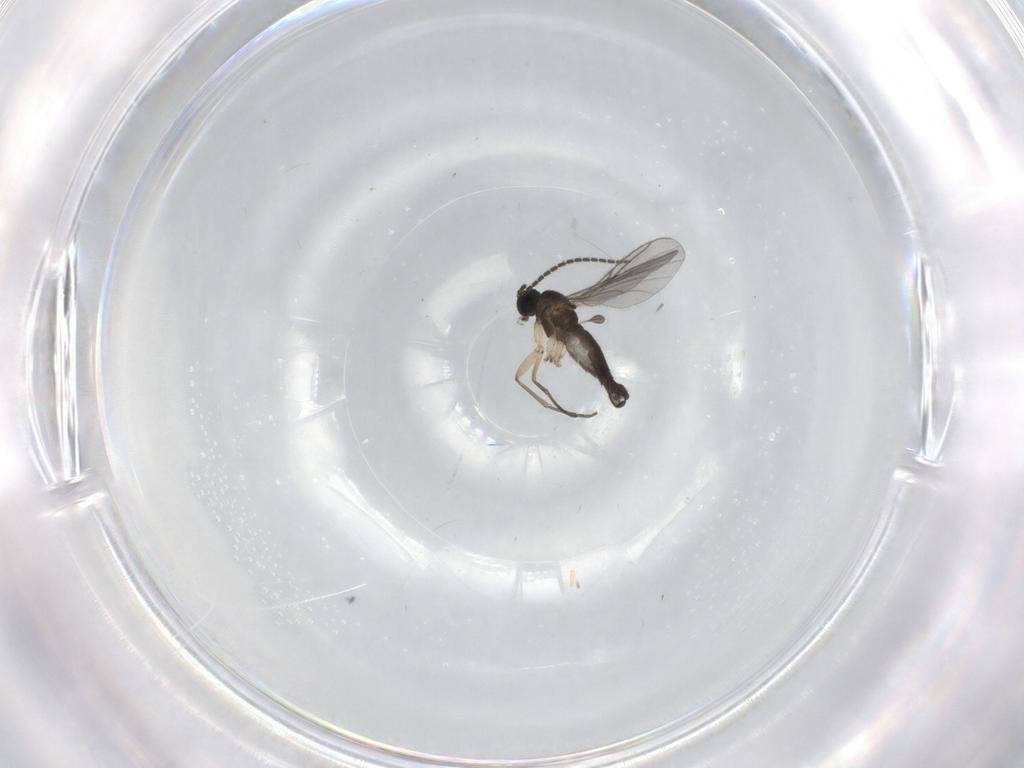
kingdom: Animalia
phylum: Arthropoda
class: Insecta
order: Diptera
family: Sciaridae
